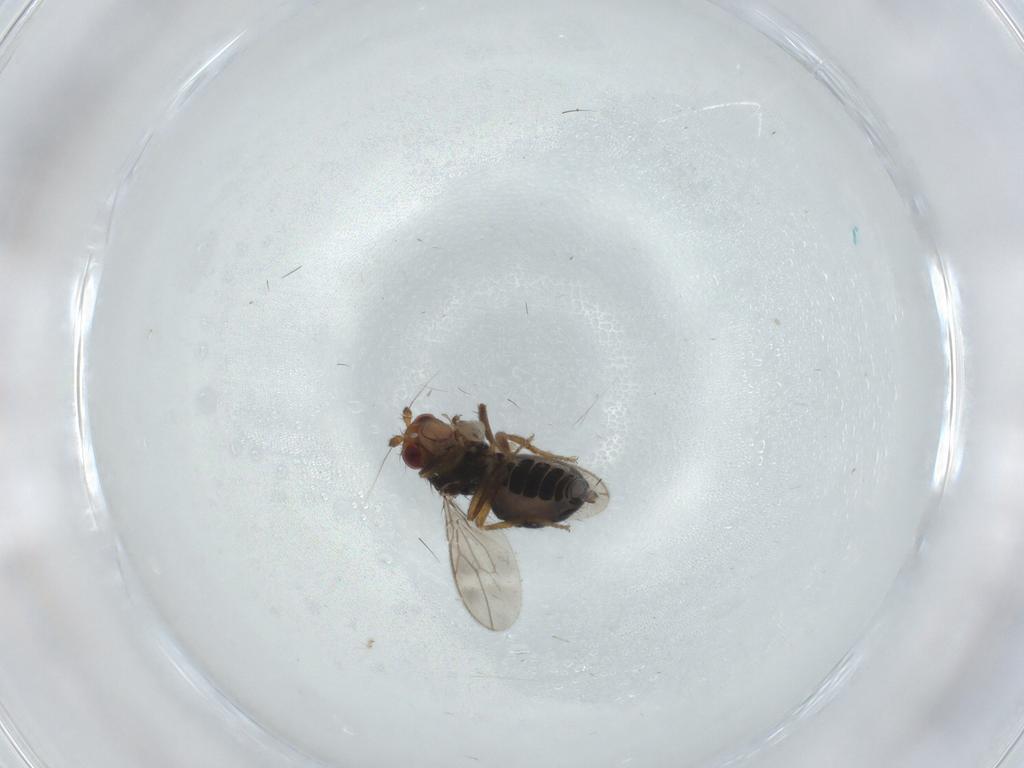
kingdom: Animalia
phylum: Arthropoda
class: Insecta
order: Diptera
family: Sphaeroceridae
